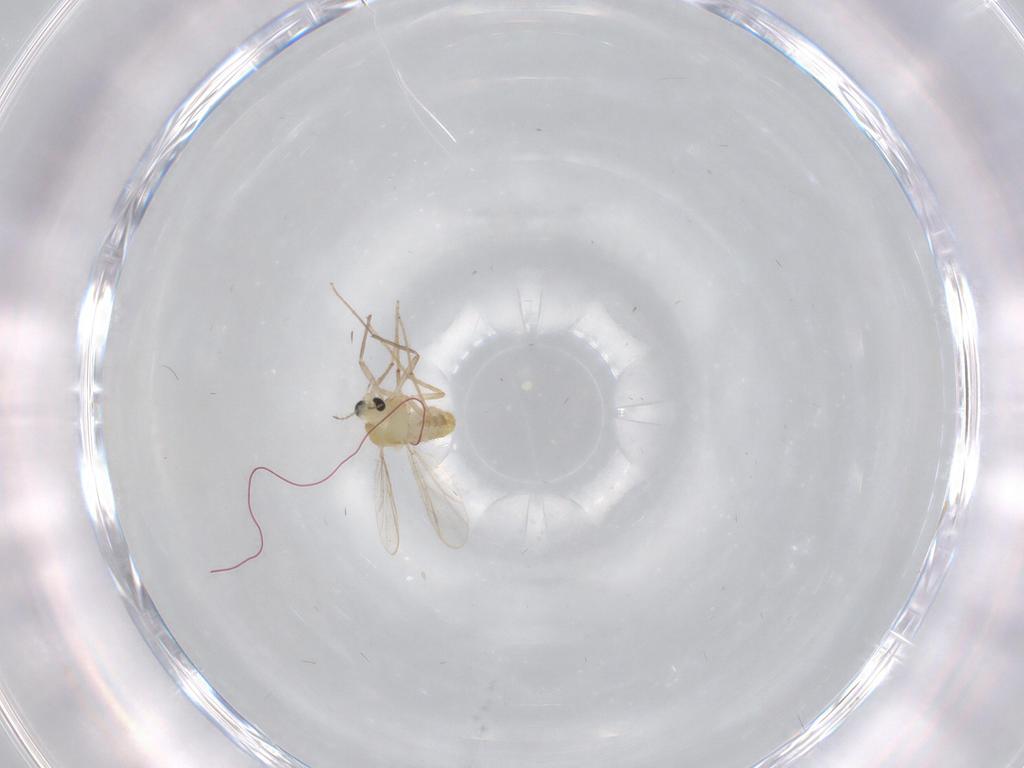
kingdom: Animalia
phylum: Arthropoda
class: Insecta
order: Diptera
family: Psychodidae
